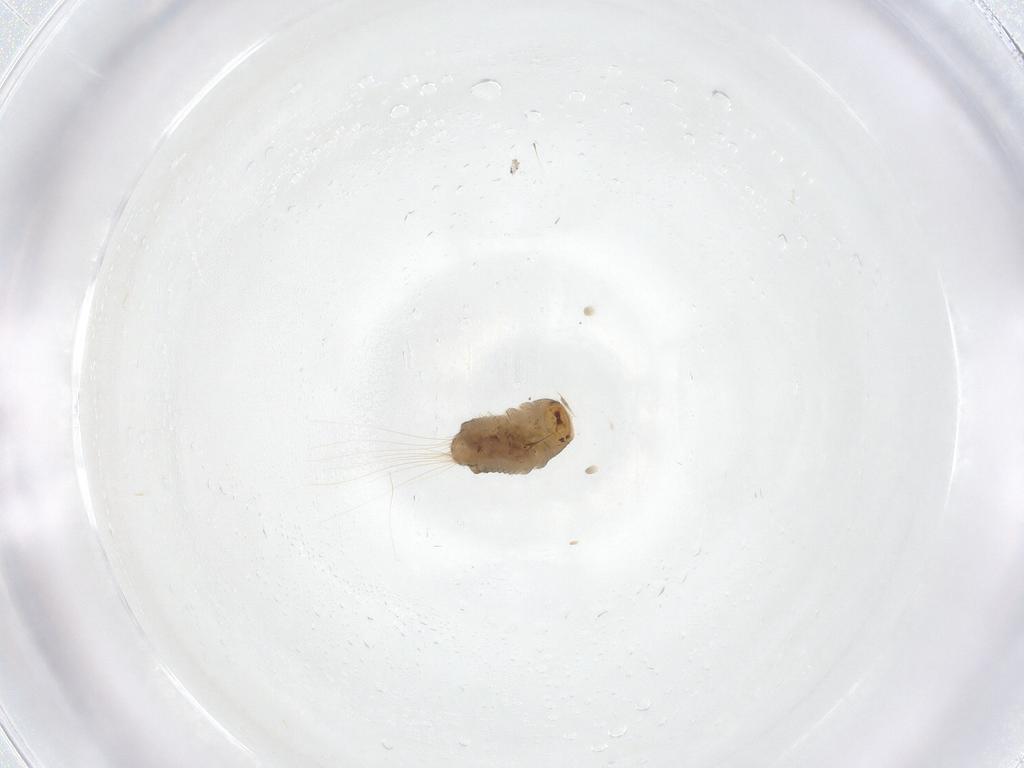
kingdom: Animalia
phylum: Arthropoda
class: Insecta
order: Coleoptera
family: Dermestidae
